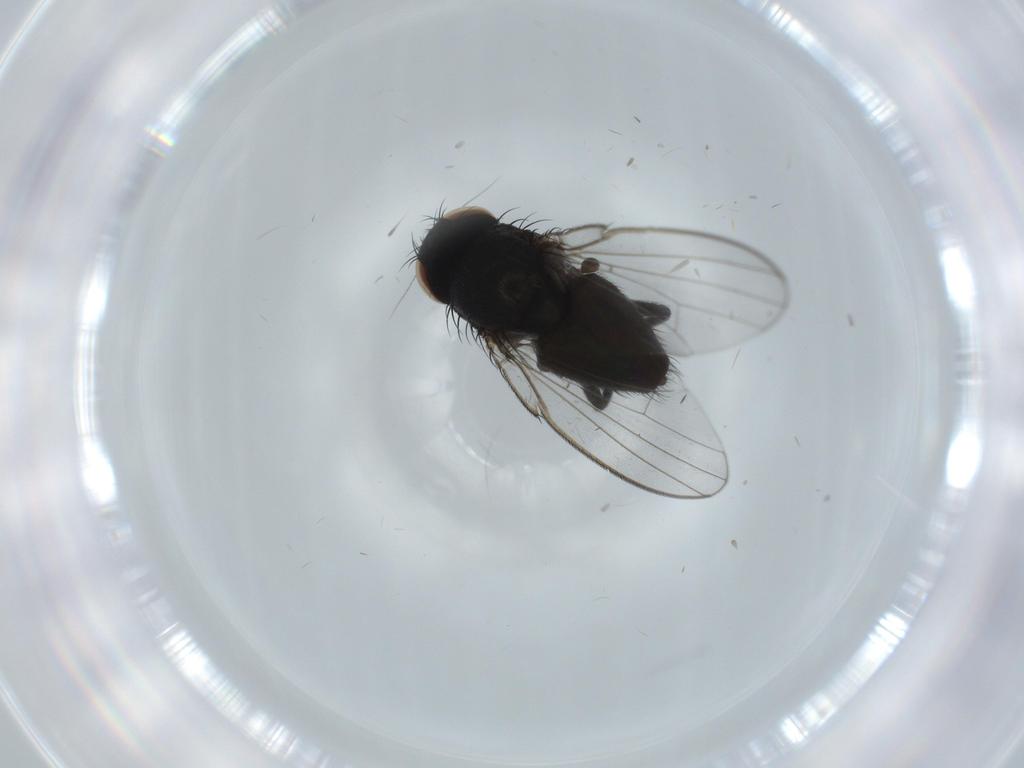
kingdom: Animalia
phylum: Arthropoda
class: Insecta
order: Diptera
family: Milichiidae
